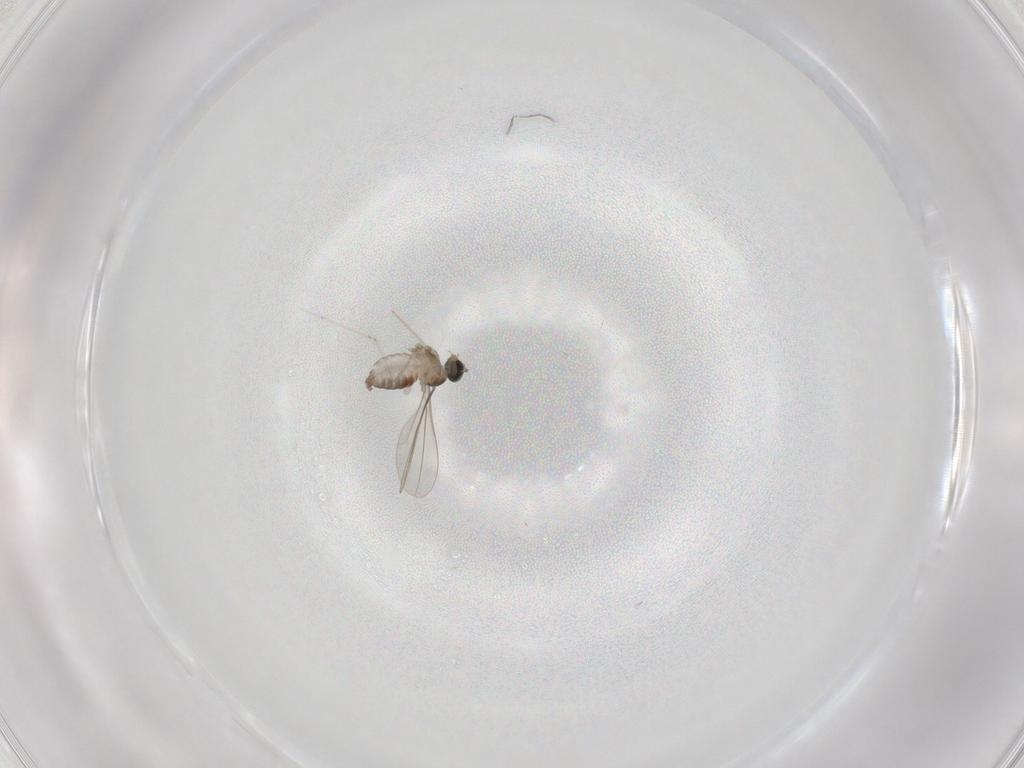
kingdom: Animalia
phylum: Arthropoda
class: Insecta
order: Diptera
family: Cecidomyiidae
